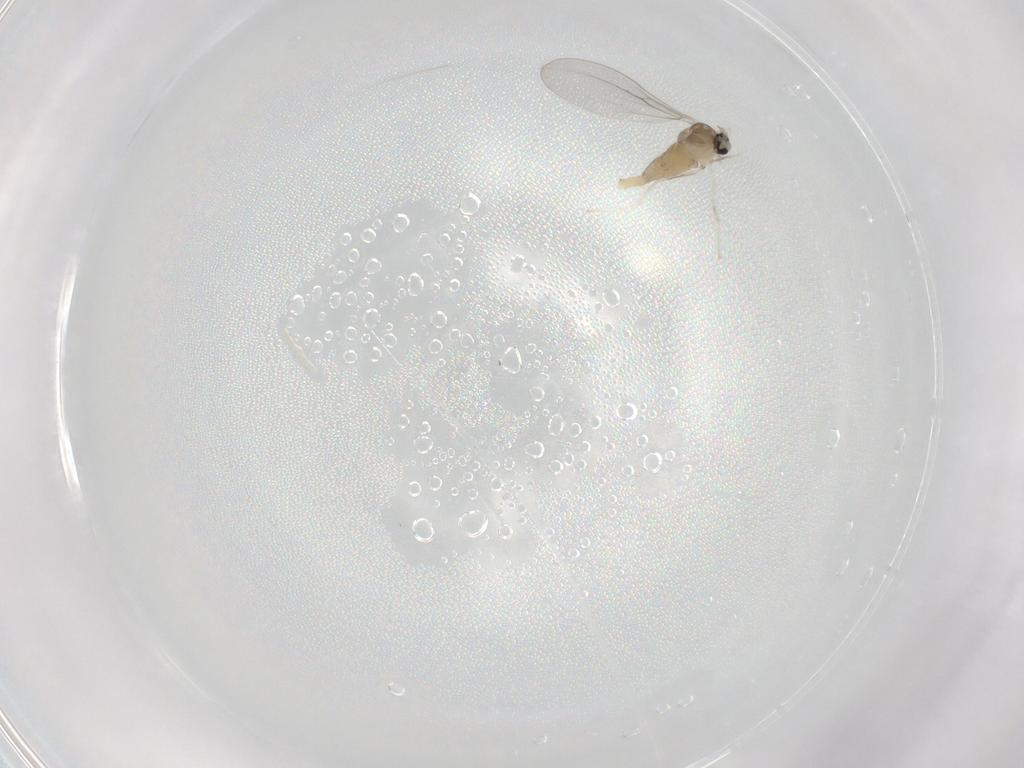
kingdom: Animalia
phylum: Arthropoda
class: Insecta
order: Diptera
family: Cecidomyiidae
